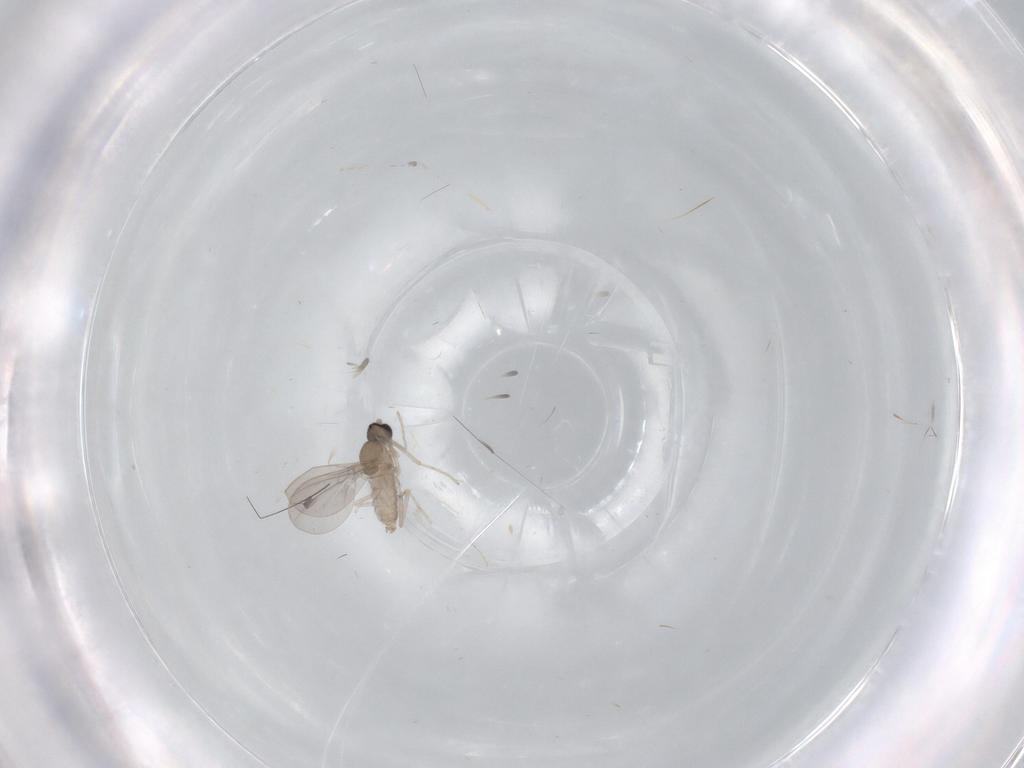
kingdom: Animalia
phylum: Arthropoda
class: Insecta
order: Diptera
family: Cecidomyiidae
